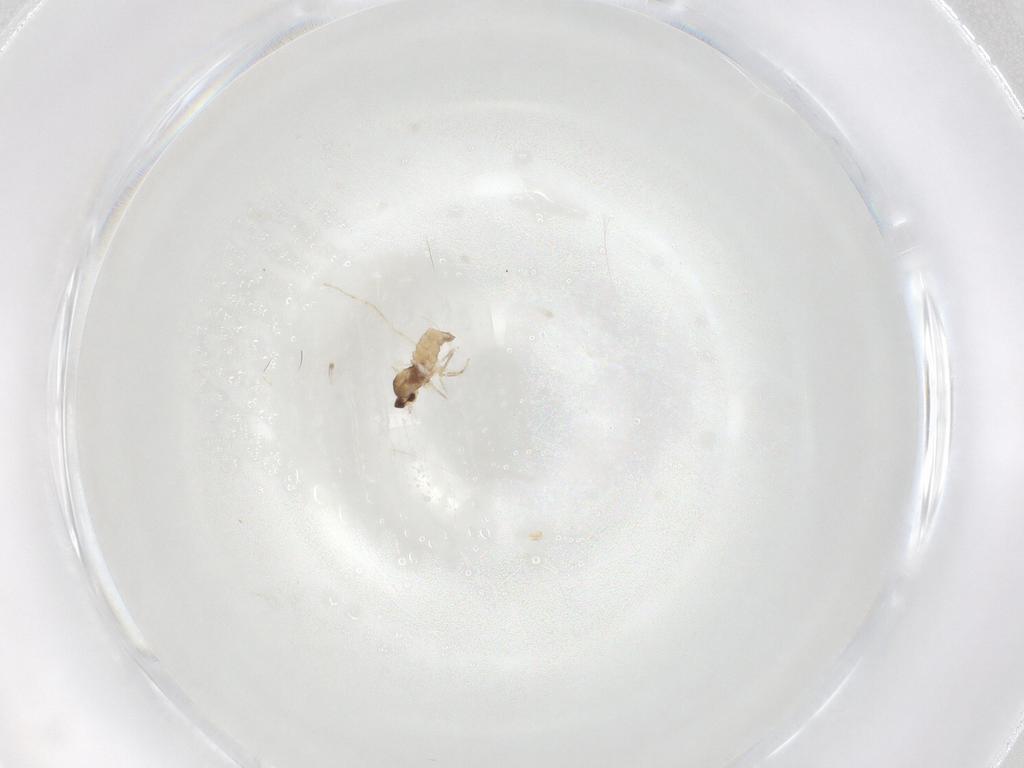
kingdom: Animalia
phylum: Arthropoda
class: Insecta
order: Diptera
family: Cecidomyiidae
